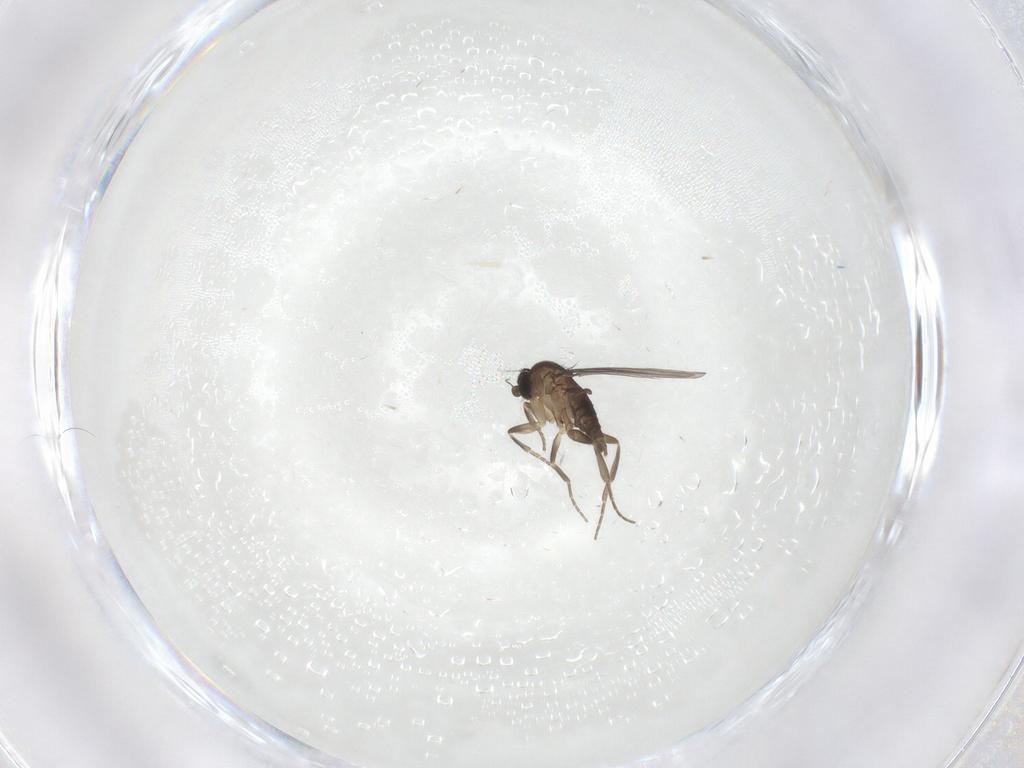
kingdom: Animalia
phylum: Arthropoda
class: Insecta
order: Diptera
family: Phoridae
